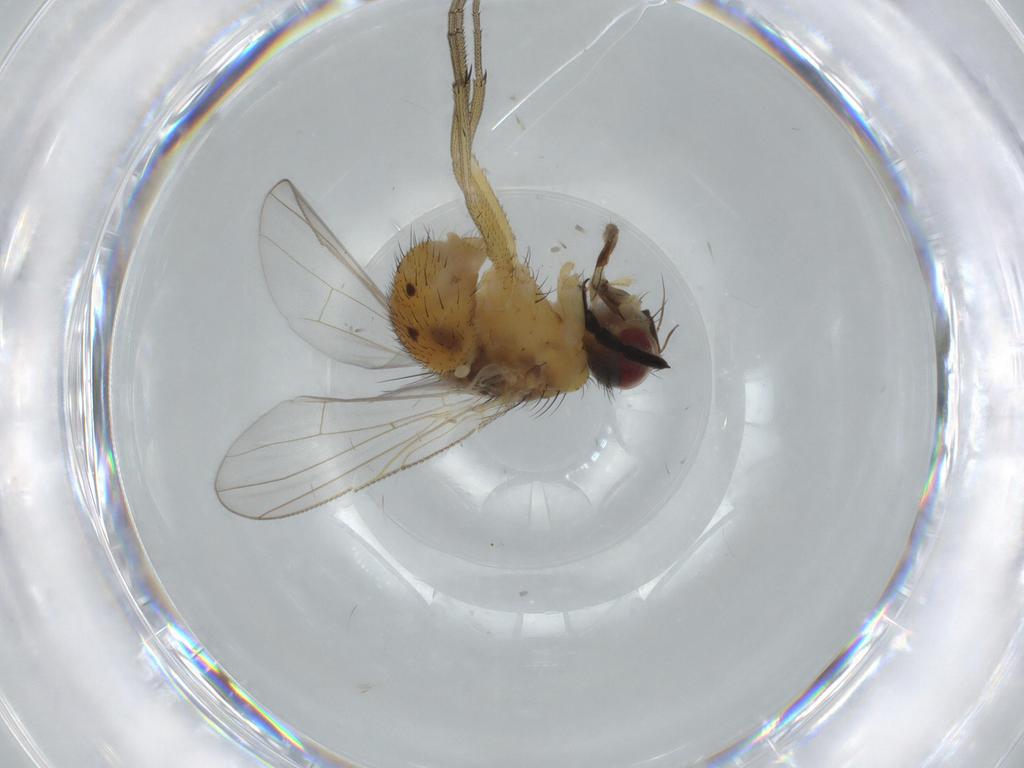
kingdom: Animalia
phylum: Arthropoda
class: Insecta
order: Diptera
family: Muscidae
